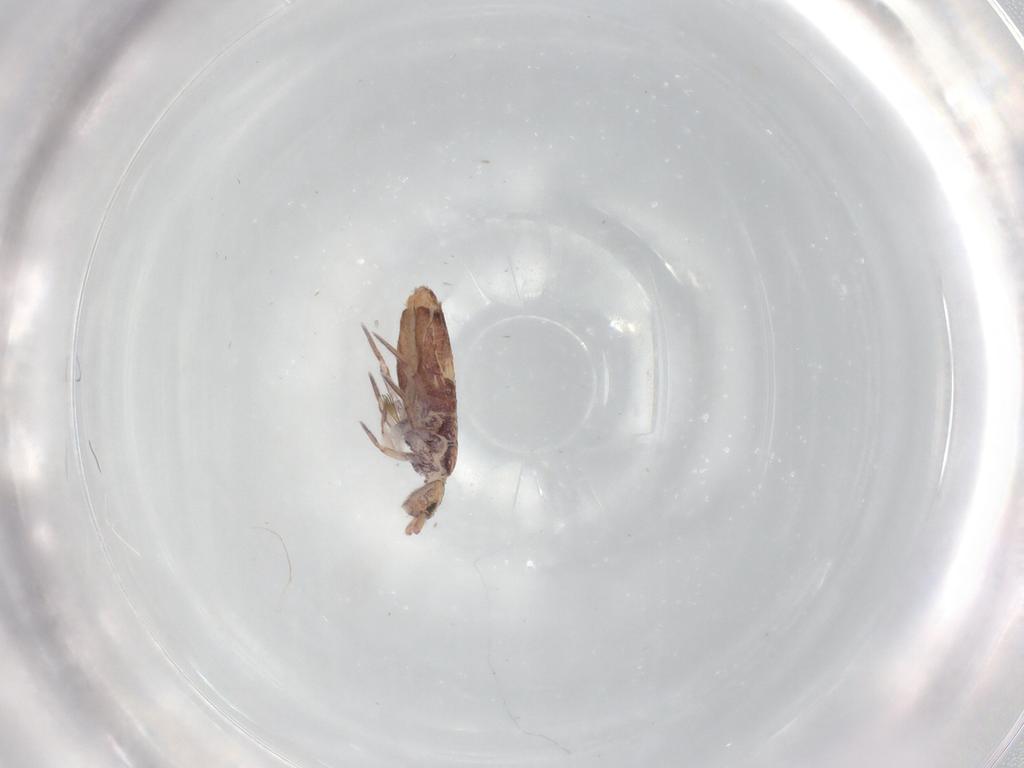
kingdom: Animalia
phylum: Arthropoda
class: Collembola
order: Entomobryomorpha
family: Entomobryidae
